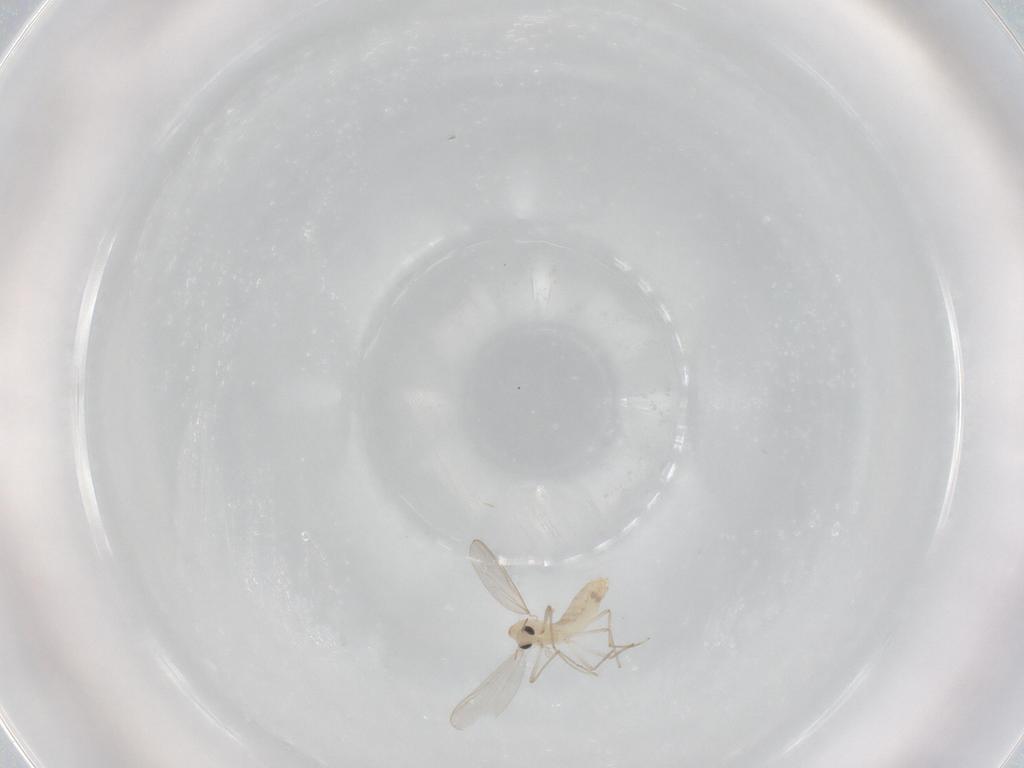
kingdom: Animalia
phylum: Arthropoda
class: Insecta
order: Diptera
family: Chironomidae
